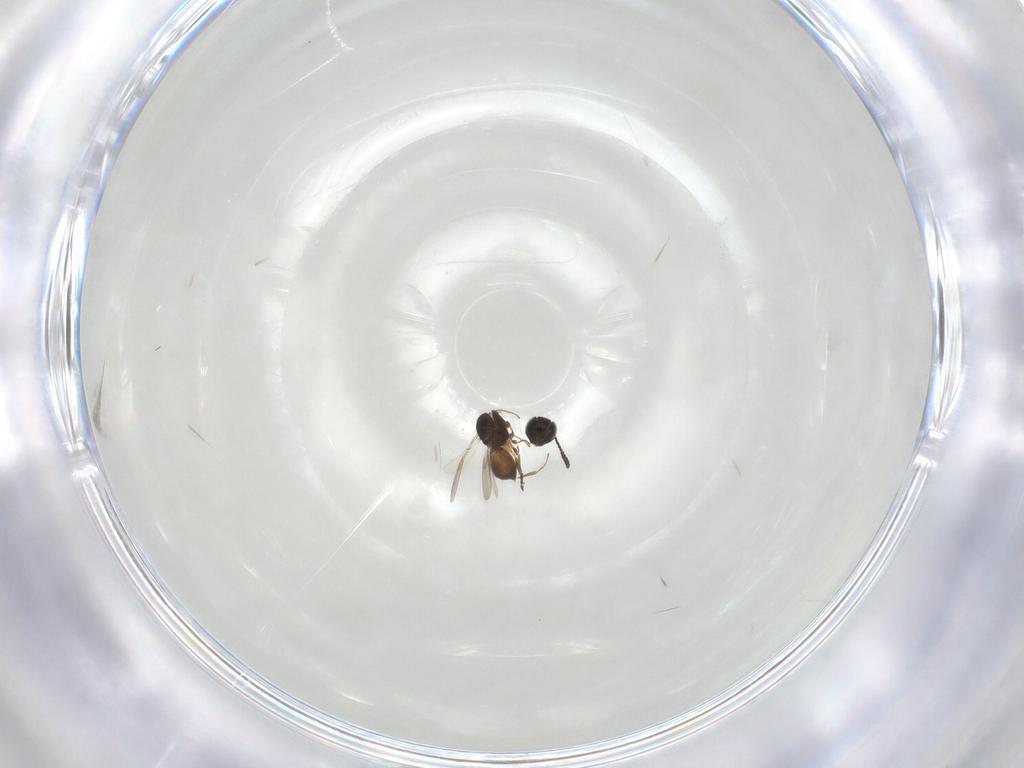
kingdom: Animalia
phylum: Arthropoda
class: Insecta
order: Hymenoptera
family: Scelionidae
